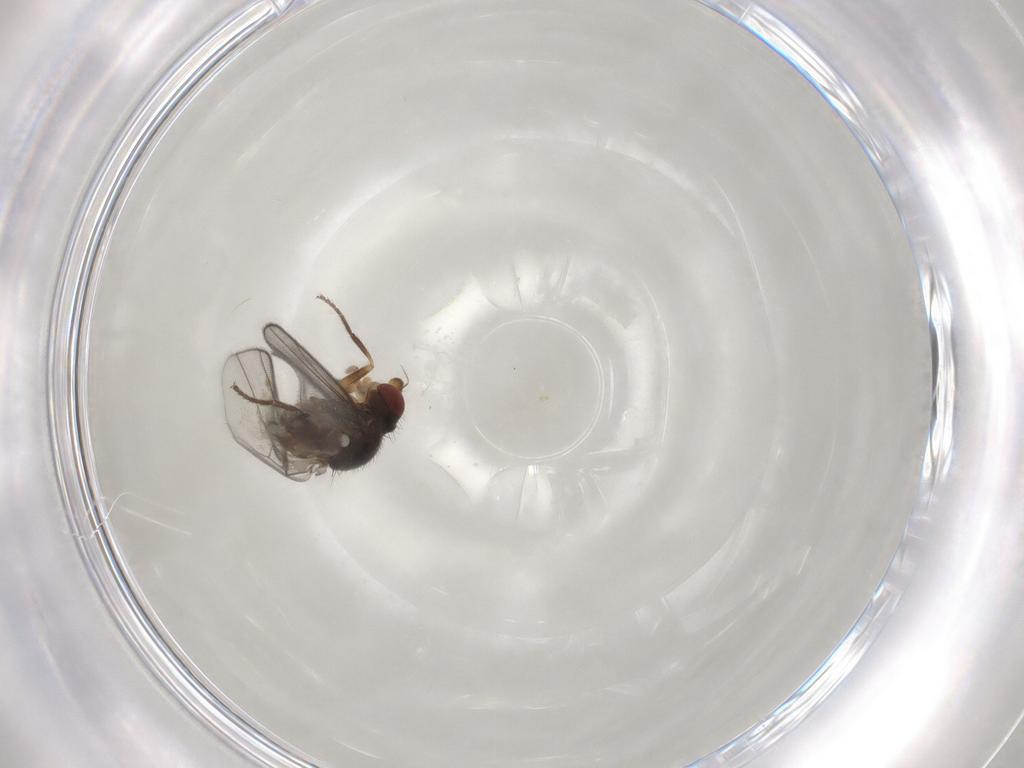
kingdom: Animalia
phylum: Arthropoda
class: Insecta
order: Diptera
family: Chloropidae
